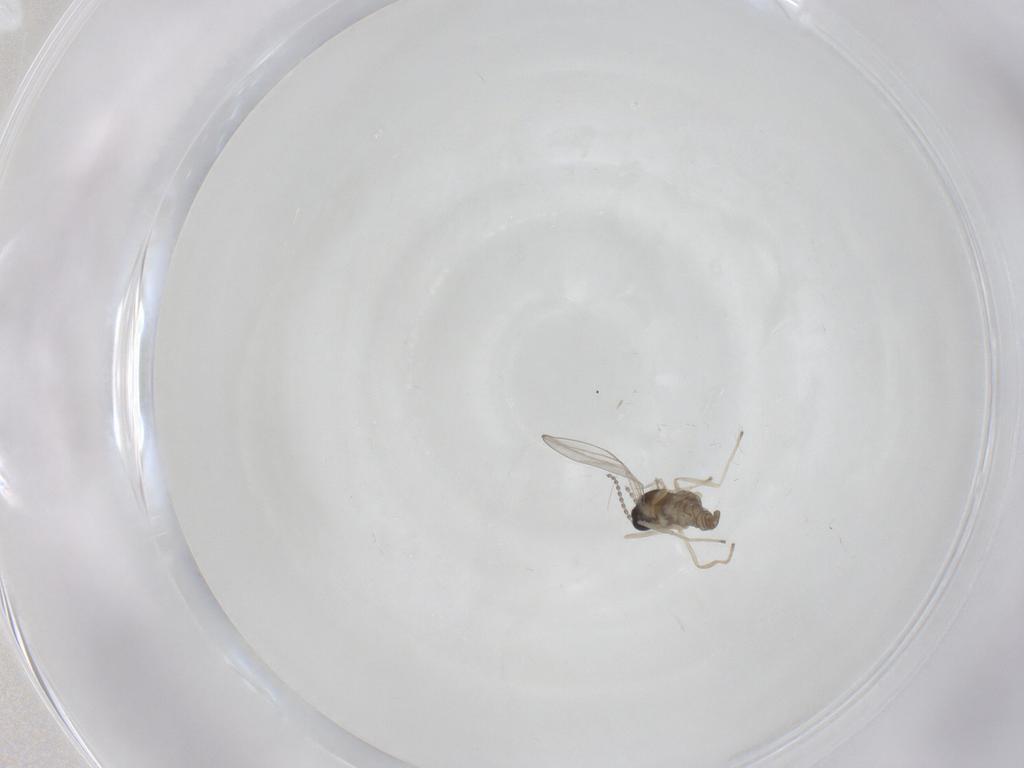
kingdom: Animalia
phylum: Arthropoda
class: Insecta
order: Diptera
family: Cecidomyiidae
